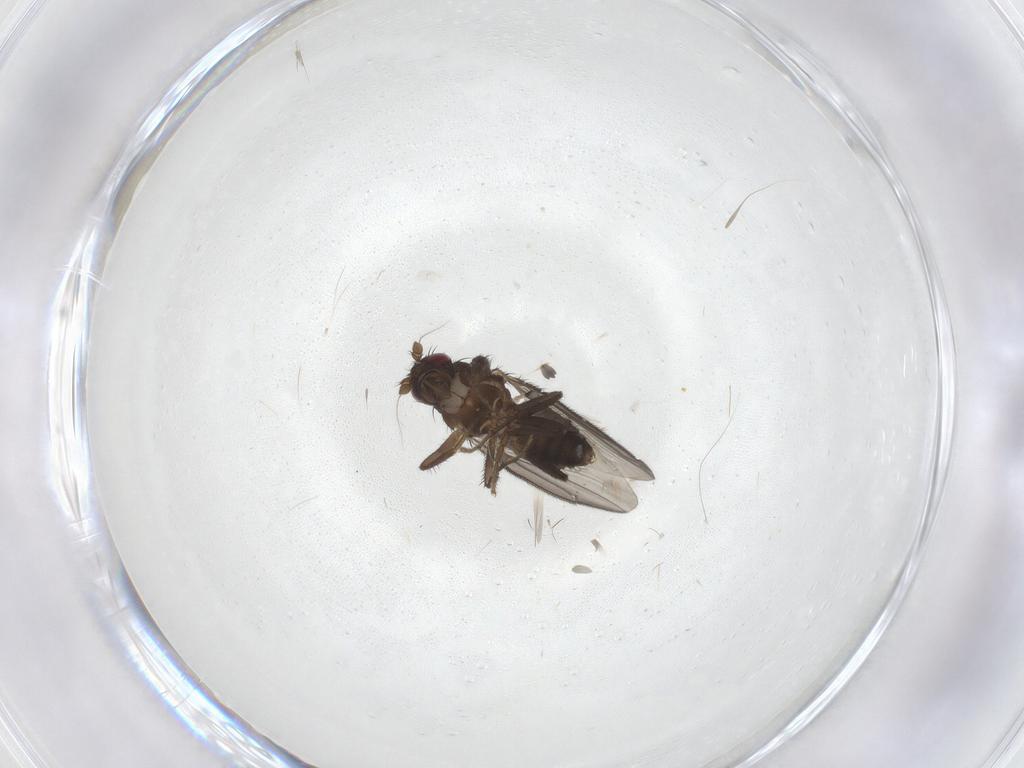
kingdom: Animalia
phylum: Arthropoda
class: Insecta
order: Diptera
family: Sphaeroceridae
